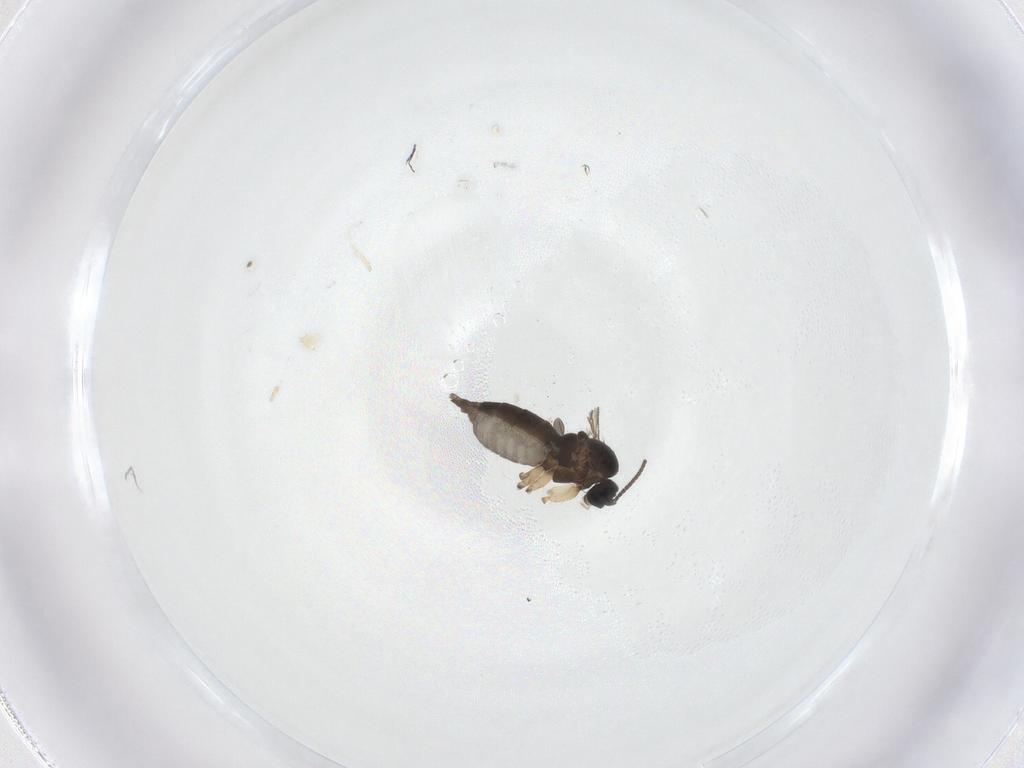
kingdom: Animalia
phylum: Arthropoda
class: Insecta
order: Diptera
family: Sciaridae
